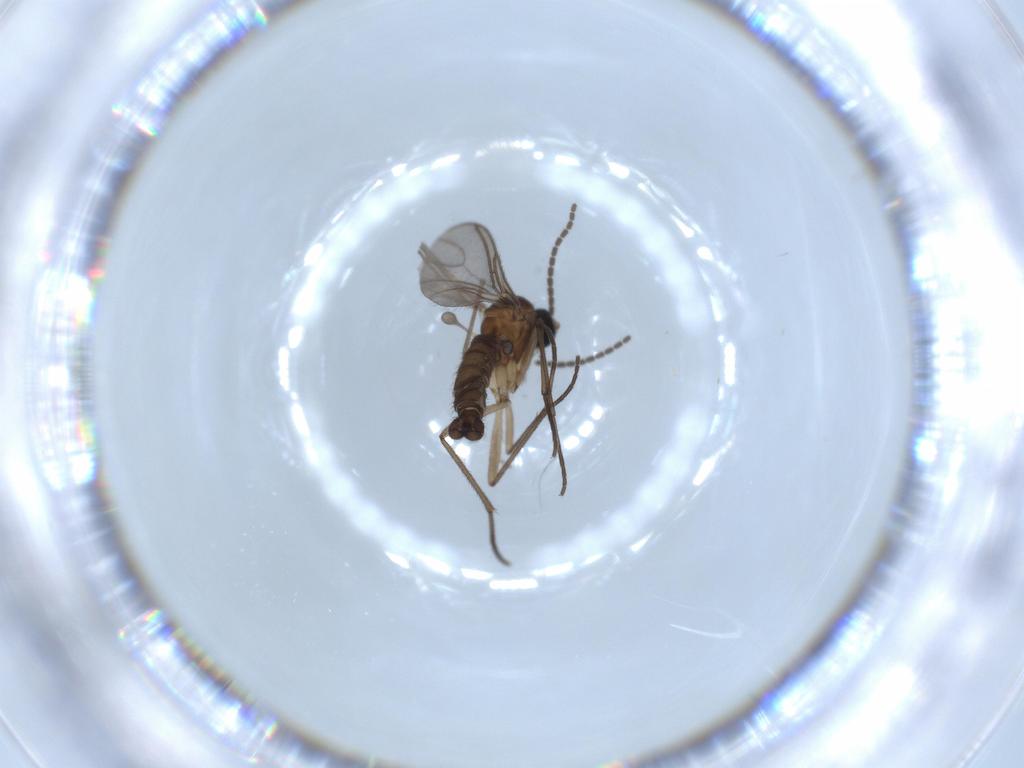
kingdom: Animalia
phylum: Arthropoda
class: Insecta
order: Diptera
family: Sciaridae
